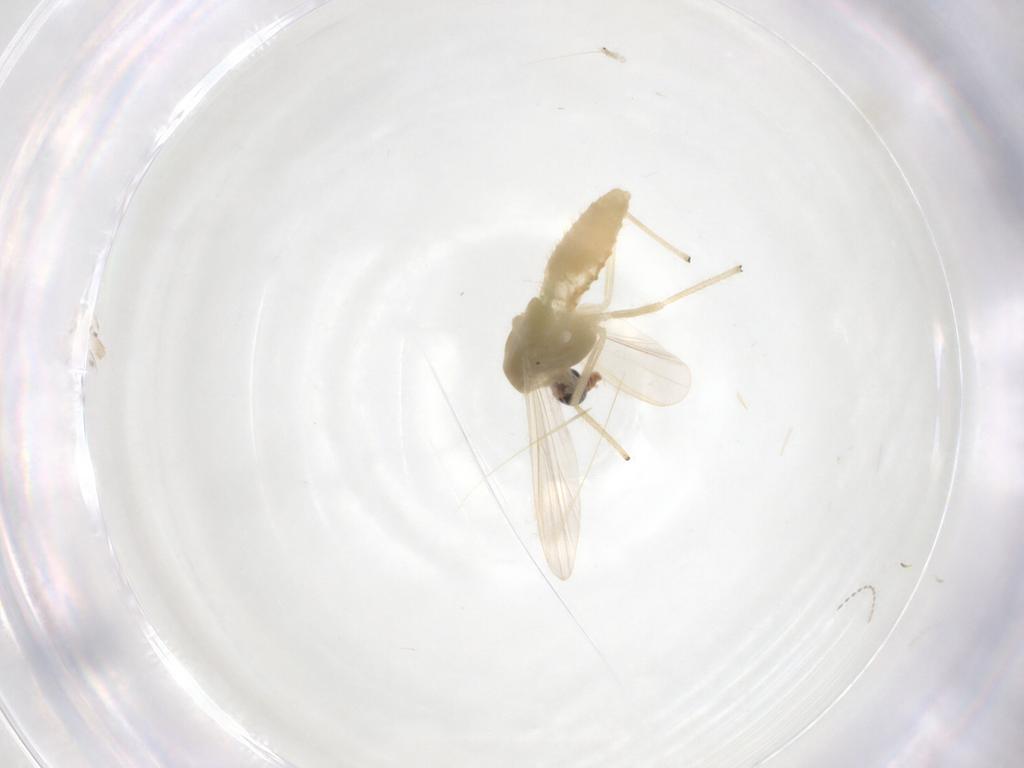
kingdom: Animalia
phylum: Arthropoda
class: Insecta
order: Diptera
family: Chironomidae
